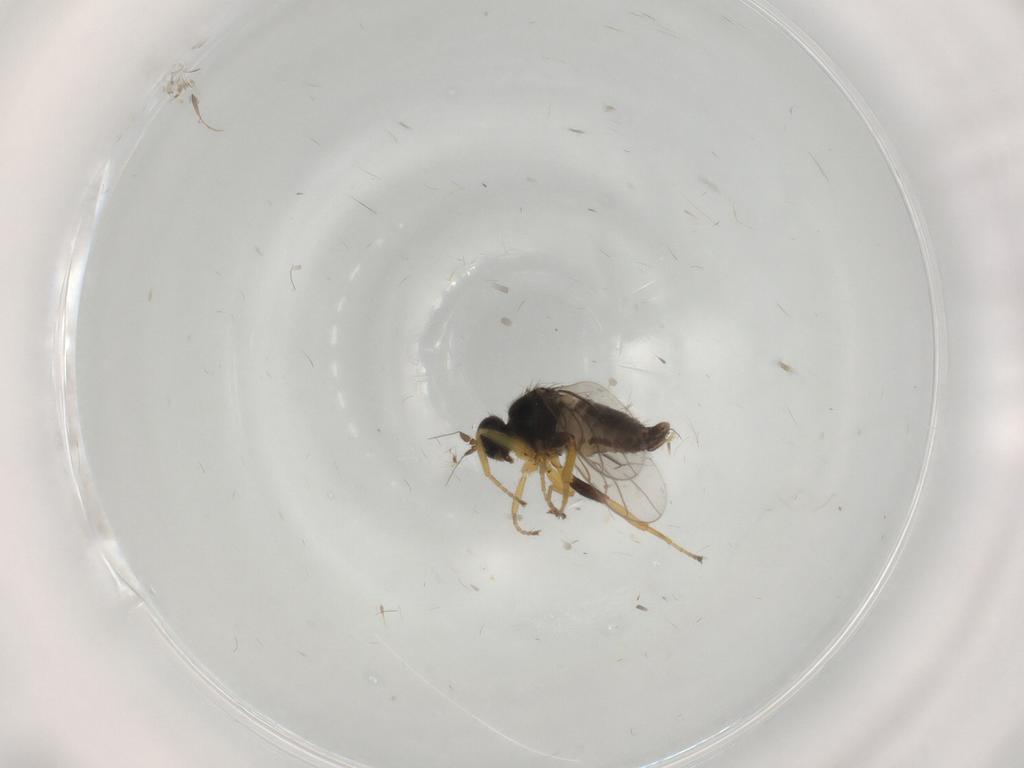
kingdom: Animalia
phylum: Arthropoda
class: Insecta
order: Diptera
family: Hybotidae
